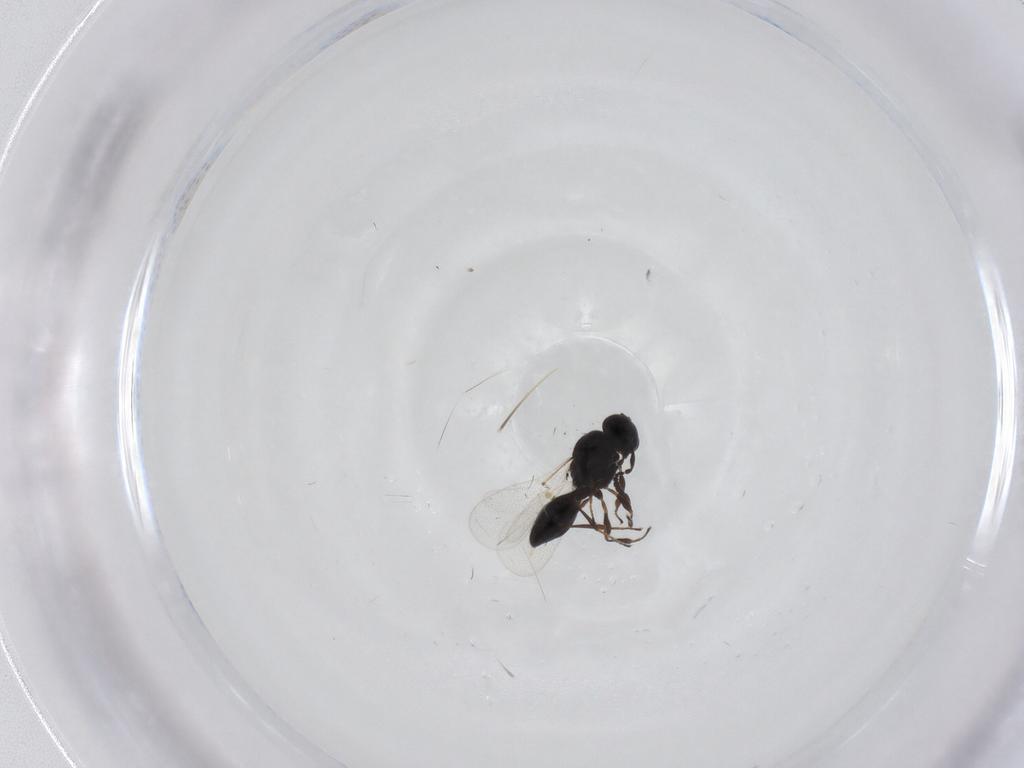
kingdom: Animalia
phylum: Arthropoda
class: Insecta
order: Hymenoptera
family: Platygastridae
